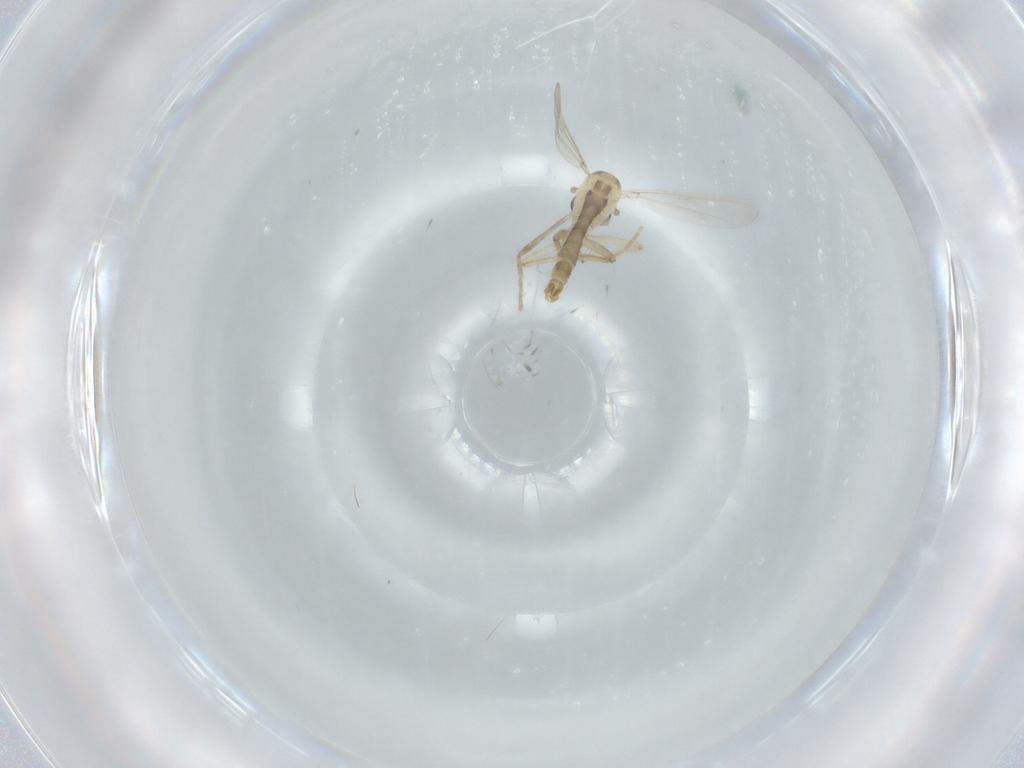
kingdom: Animalia
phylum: Arthropoda
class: Insecta
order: Diptera
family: Chironomidae
